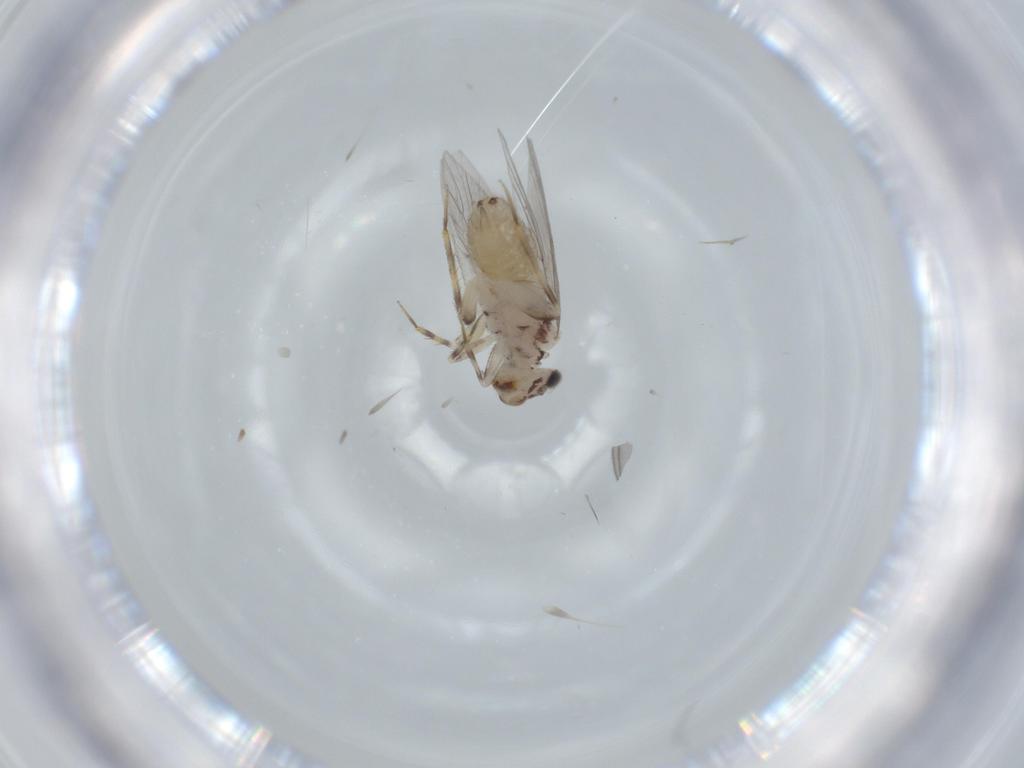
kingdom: Animalia
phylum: Arthropoda
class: Insecta
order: Psocodea
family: Lepidopsocidae
